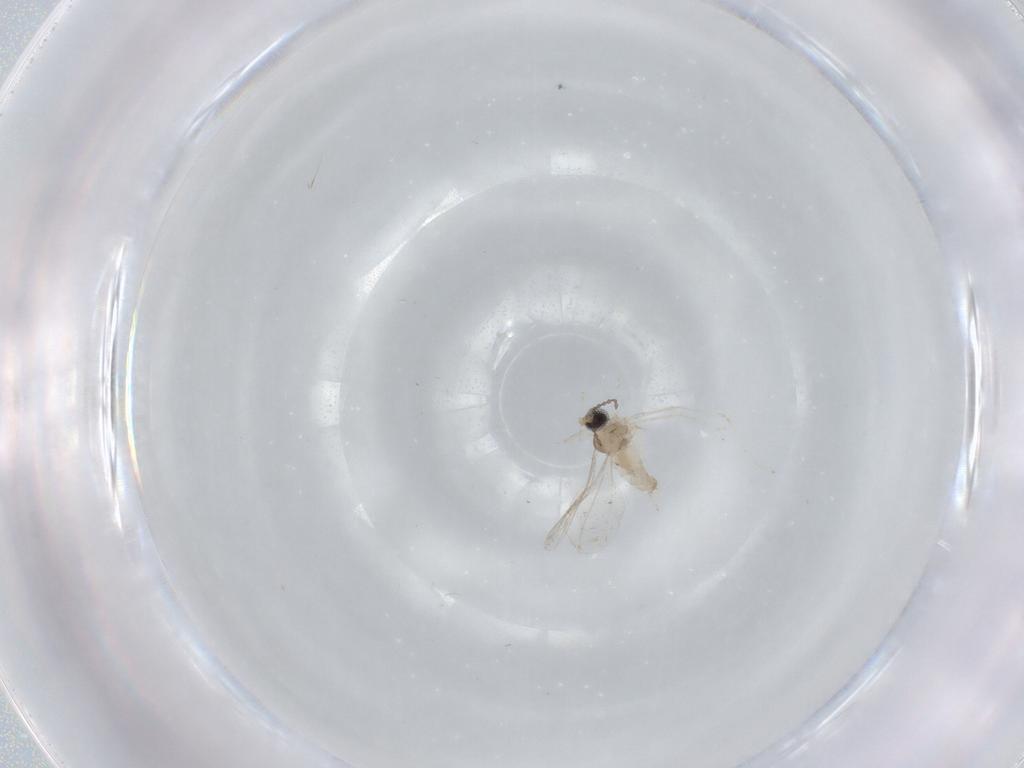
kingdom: Animalia
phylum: Arthropoda
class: Insecta
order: Diptera
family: Cecidomyiidae
